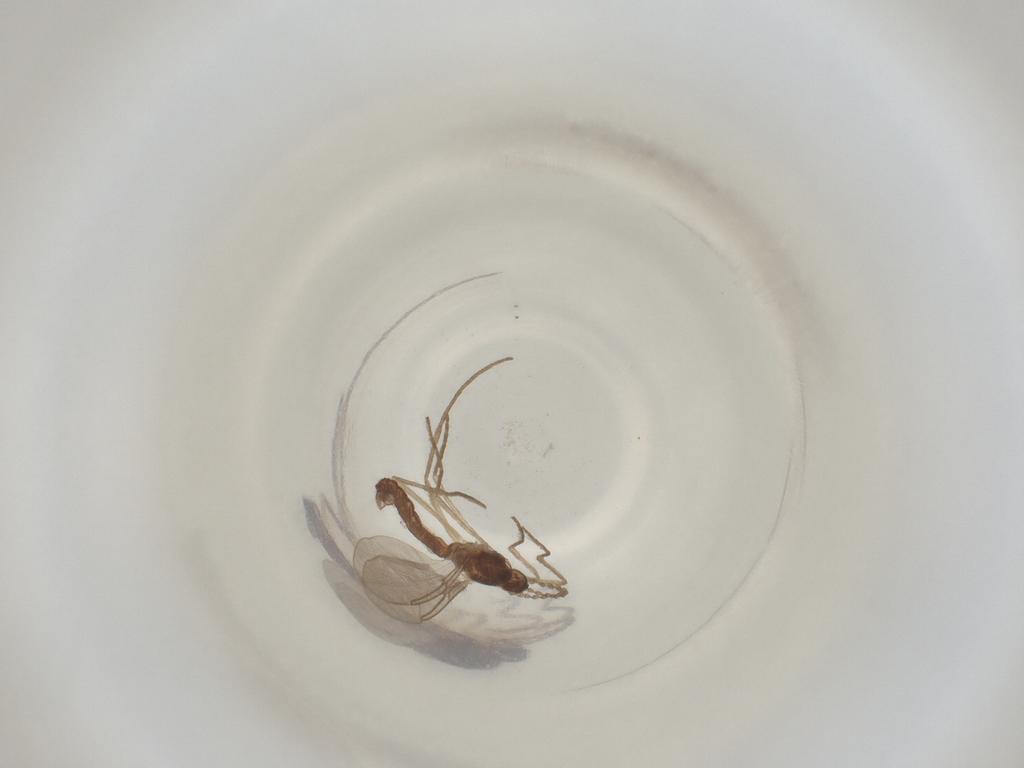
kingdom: Animalia
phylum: Arthropoda
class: Insecta
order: Diptera
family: Cecidomyiidae
